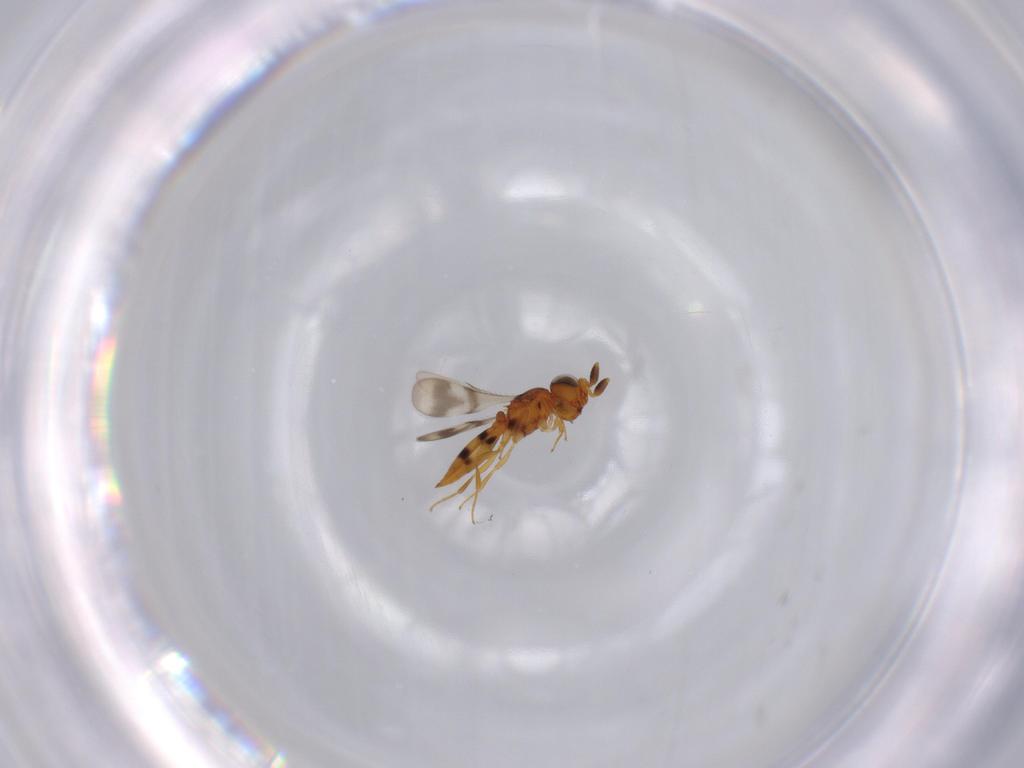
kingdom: Animalia
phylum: Arthropoda
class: Insecta
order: Hymenoptera
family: Scelionidae
